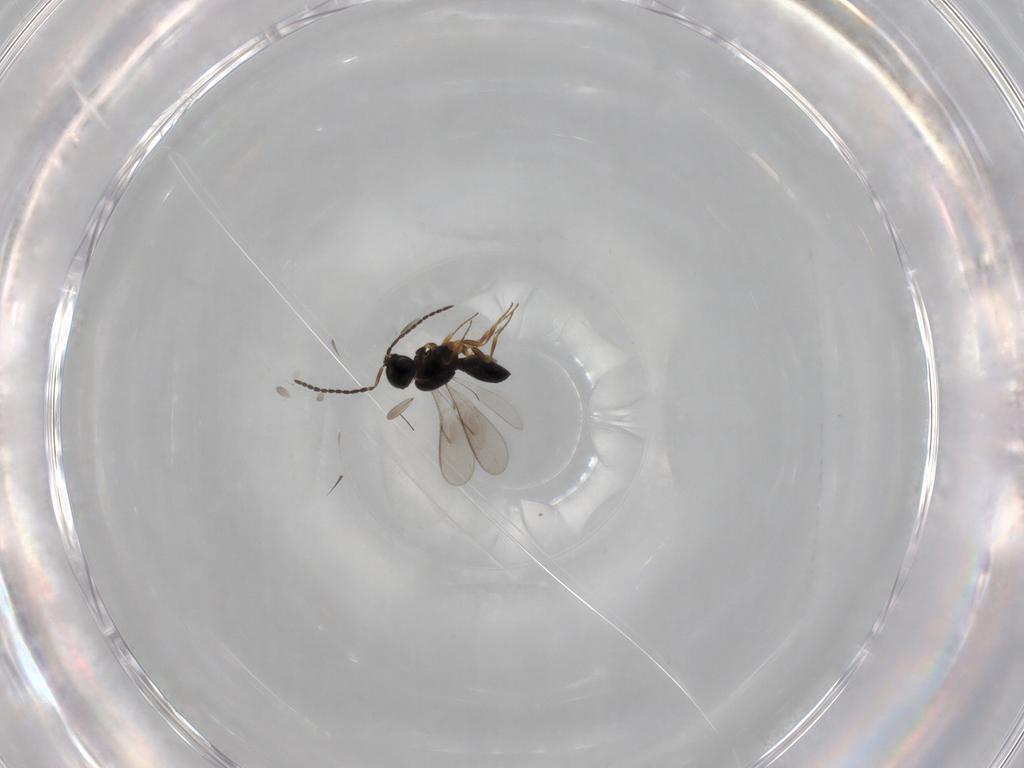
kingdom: Animalia
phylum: Arthropoda
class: Insecta
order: Hymenoptera
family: Scelionidae
